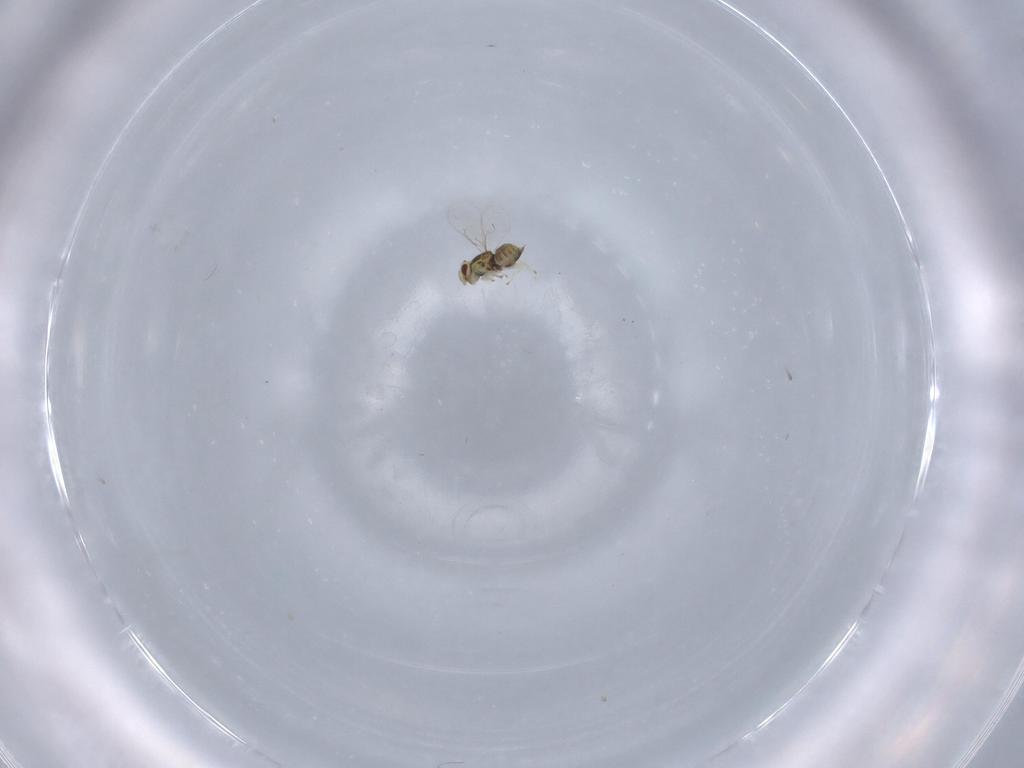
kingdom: Animalia
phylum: Arthropoda
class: Insecta
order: Hymenoptera
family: Eulophidae
